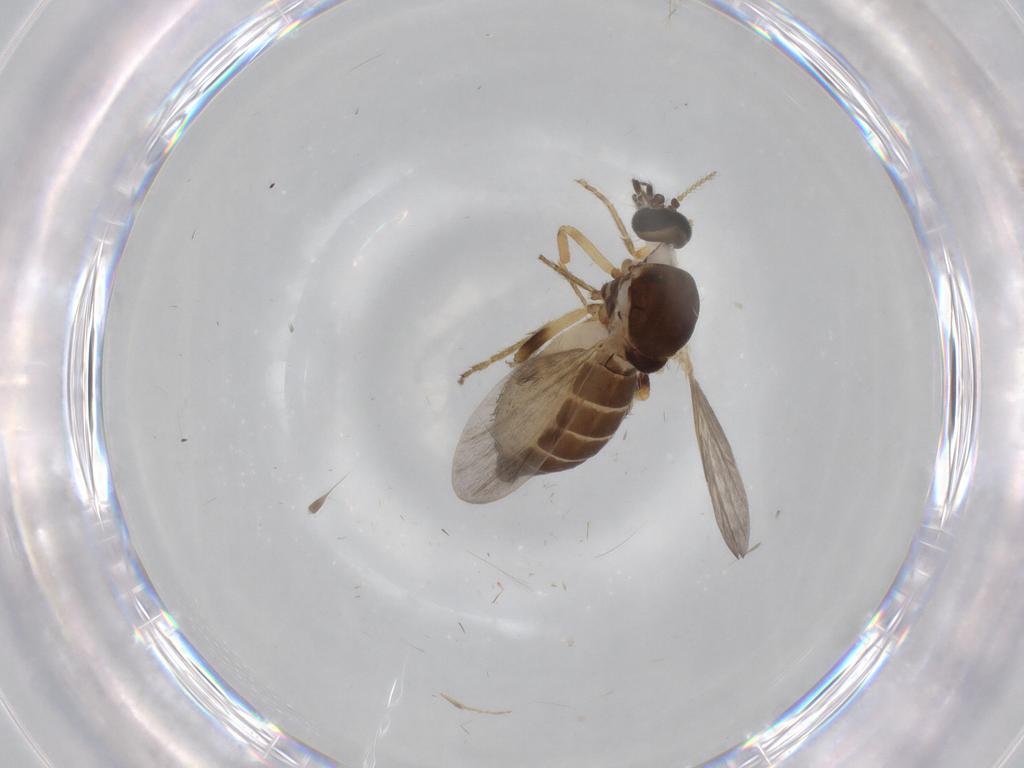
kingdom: Animalia
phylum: Arthropoda
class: Insecta
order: Diptera
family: Ceratopogonidae
